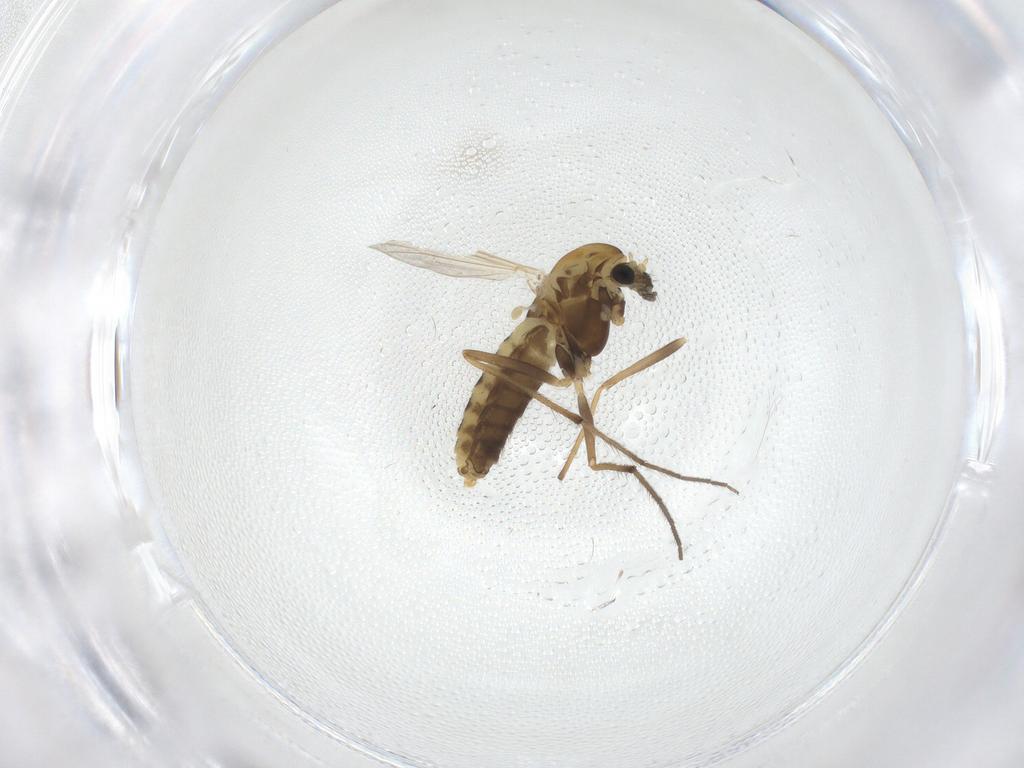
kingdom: Animalia
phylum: Arthropoda
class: Insecta
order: Diptera
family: Chironomidae
